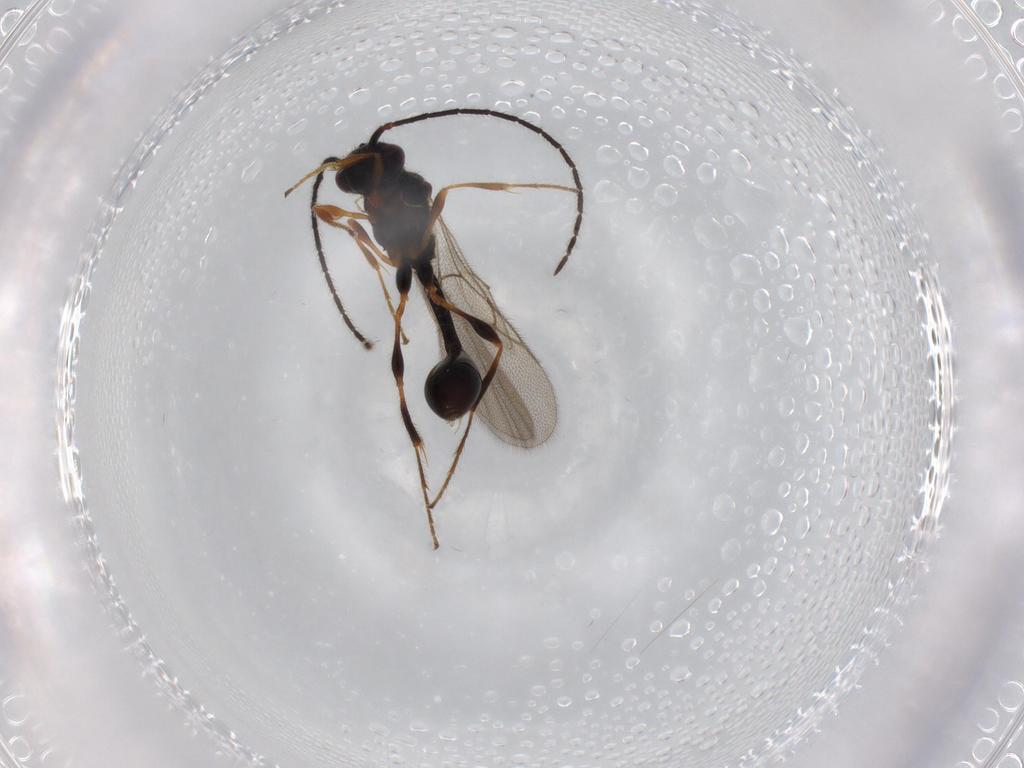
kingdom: Animalia
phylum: Arthropoda
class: Insecta
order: Hymenoptera
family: Diapriidae
